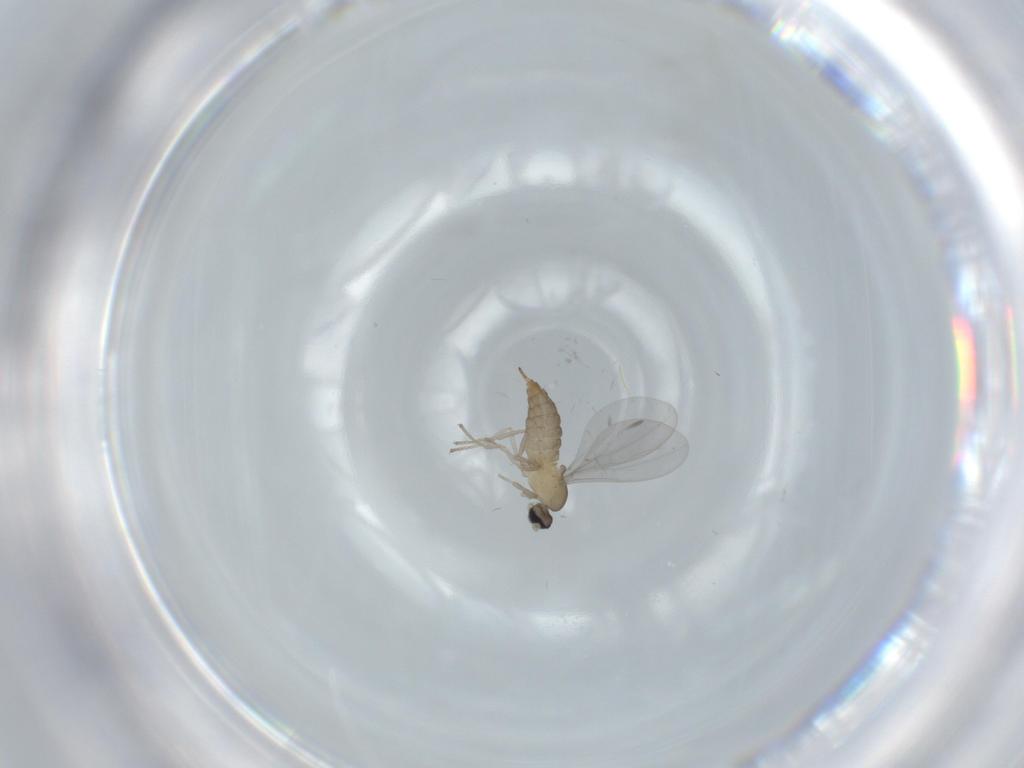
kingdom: Animalia
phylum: Arthropoda
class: Insecta
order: Diptera
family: Cecidomyiidae
